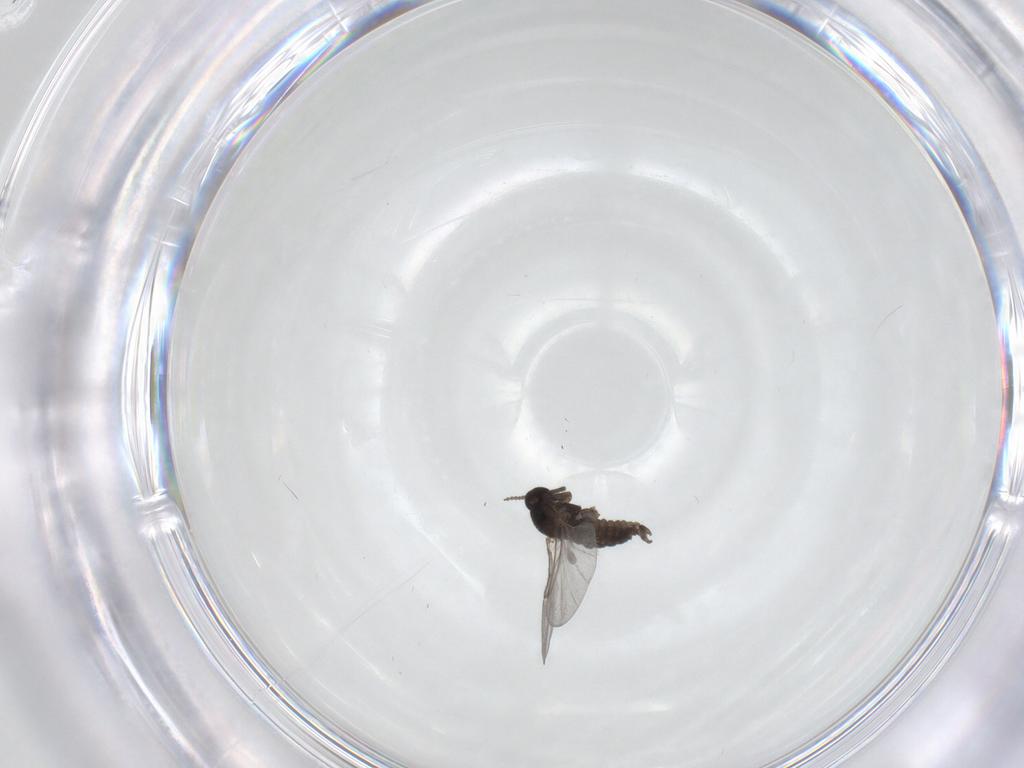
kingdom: Animalia
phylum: Arthropoda
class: Insecta
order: Diptera
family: Cecidomyiidae
